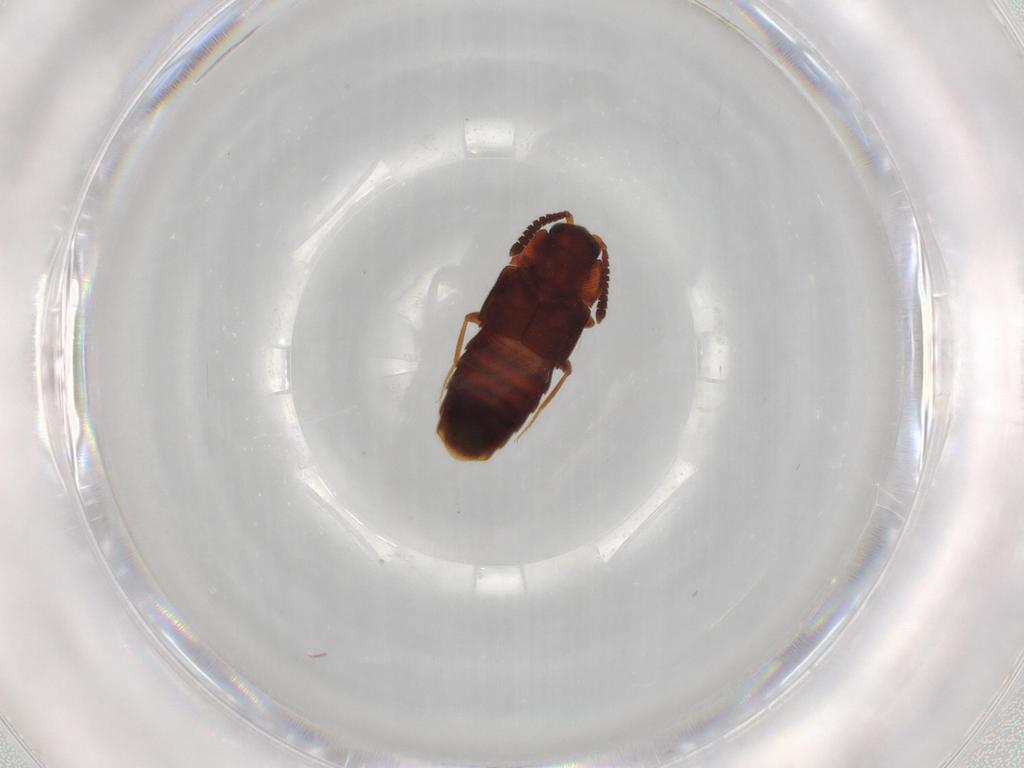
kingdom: Animalia
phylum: Arthropoda
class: Insecta
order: Coleoptera
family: Staphylinidae
